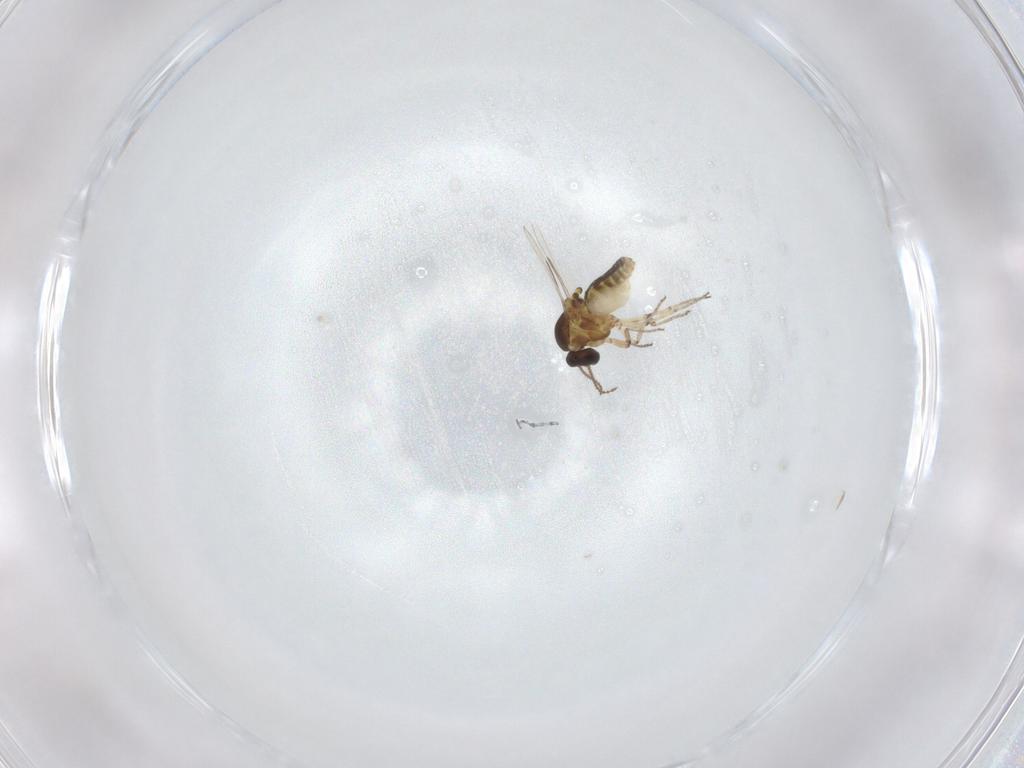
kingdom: Animalia
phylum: Arthropoda
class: Insecta
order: Diptera
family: Ceratopogonidae
